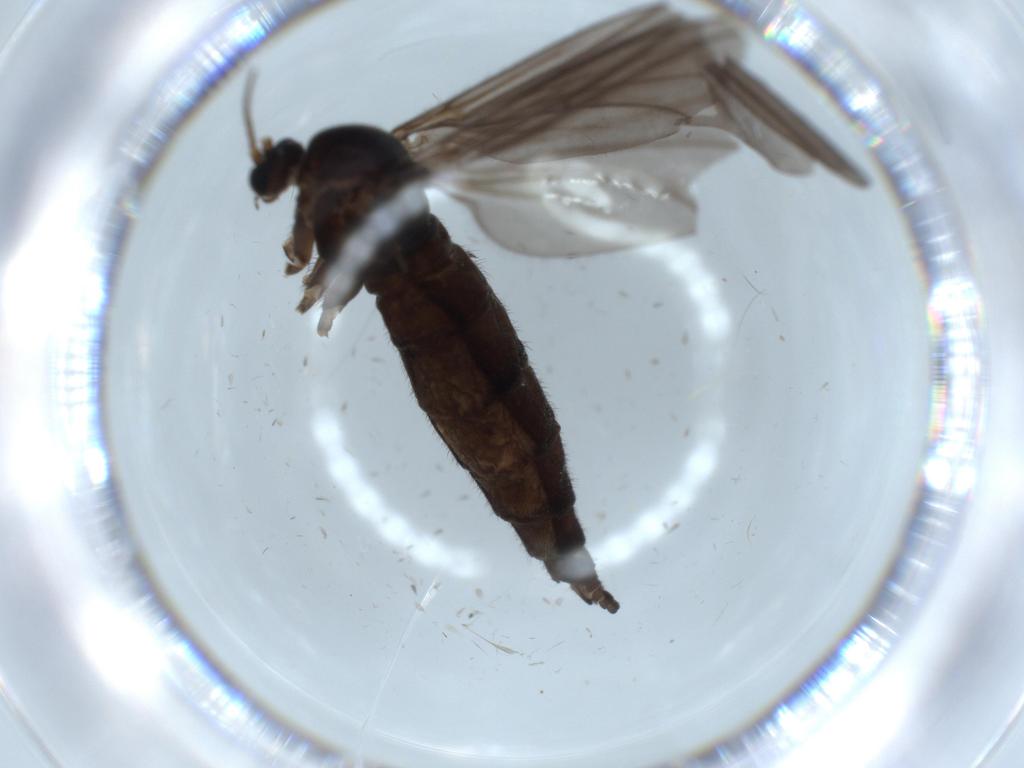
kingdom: Animalia
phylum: Arthropoda
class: Insecta
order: Diptera
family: Sciaridae
